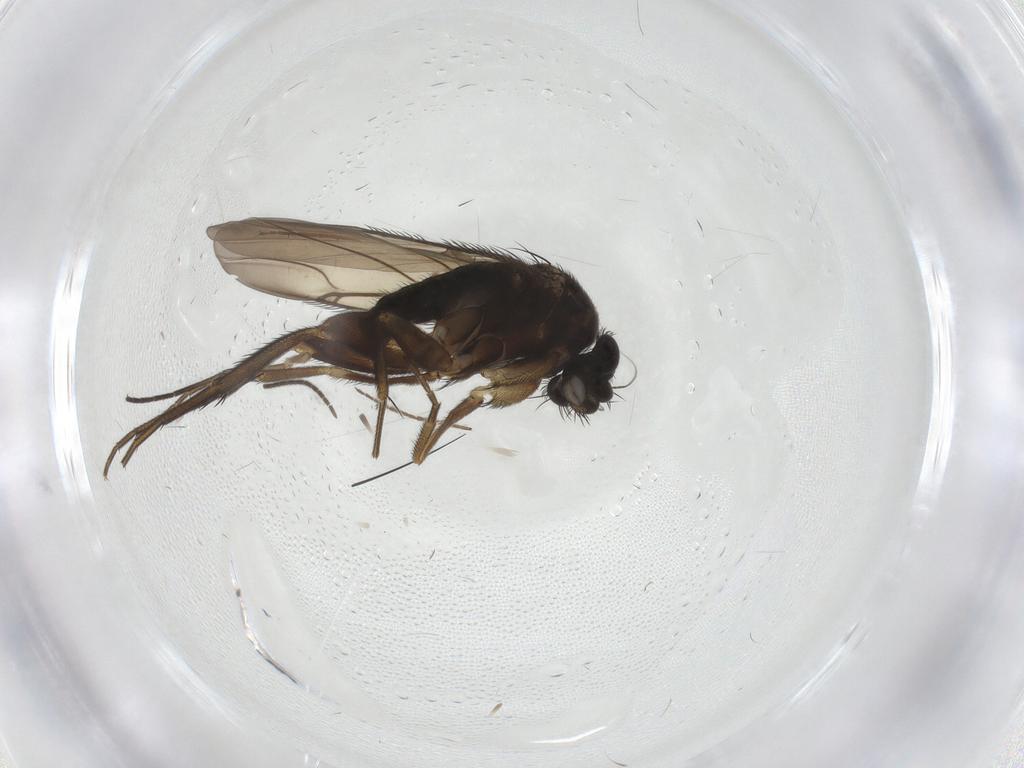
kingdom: Animalia
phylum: Arthropoda
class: Insecta
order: Diptera
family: Phoridae
